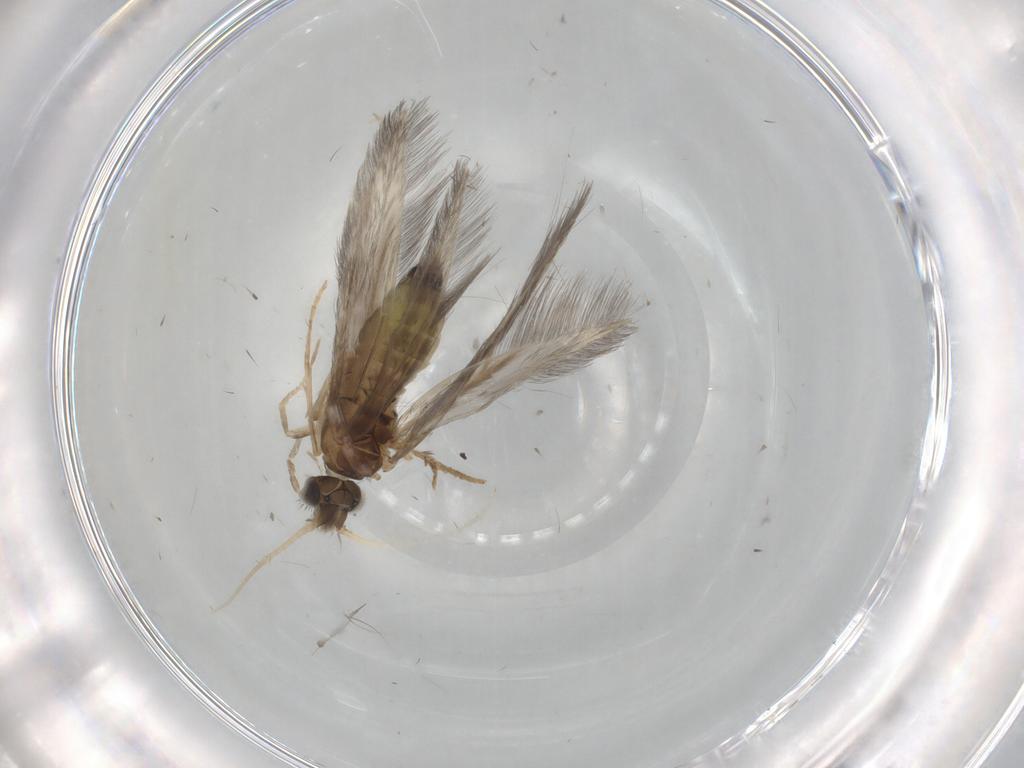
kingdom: Animalia
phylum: Arthropoda
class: Insecta
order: Trichoptera
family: Hydroptilidae
